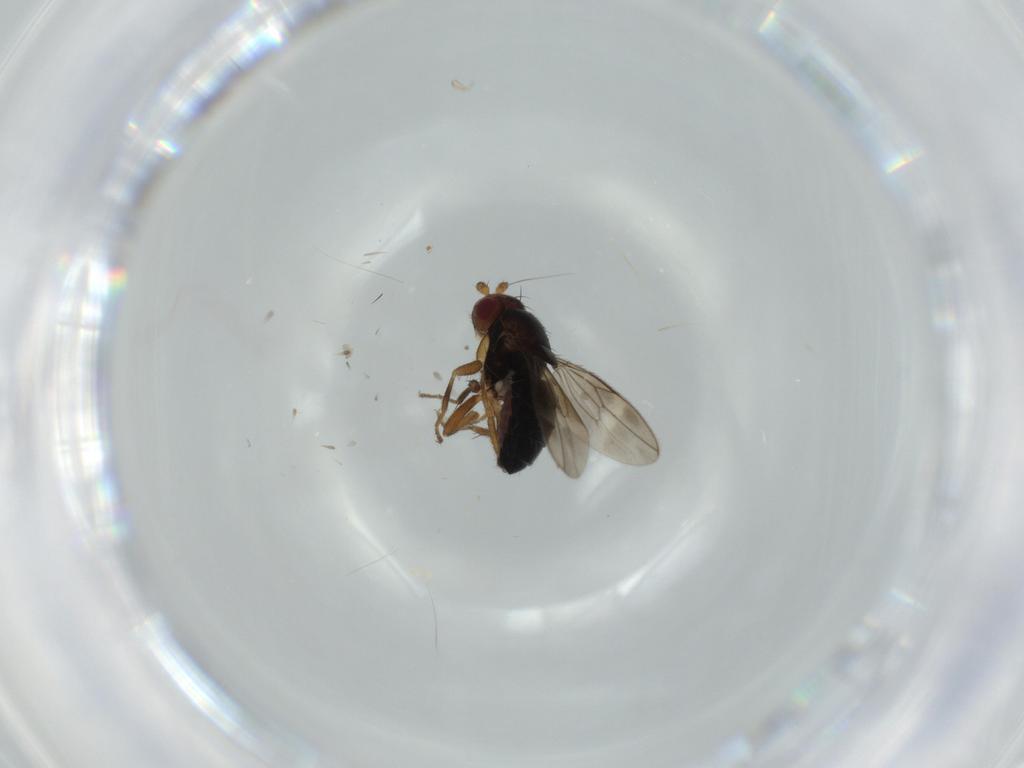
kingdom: Animalia
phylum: Arthropoda
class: Insecta
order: Diptera
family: Sphaeroceridae
